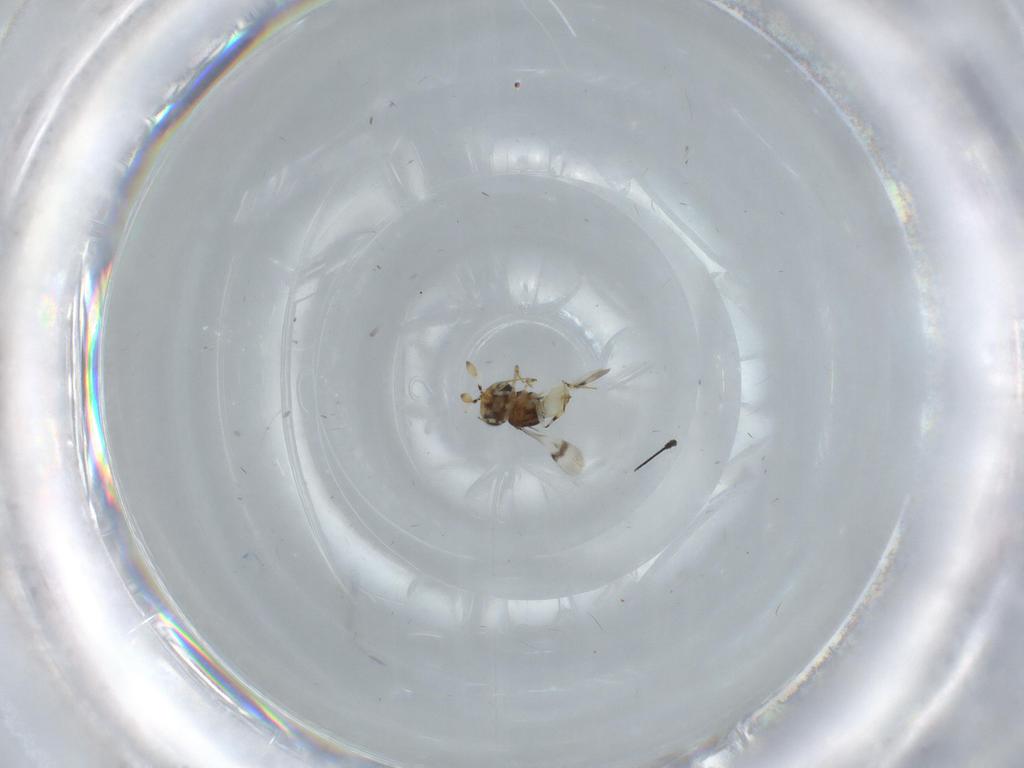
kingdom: Animalia
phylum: Arthropoda
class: Insecta
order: Hymenoptera
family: Scelionidae
